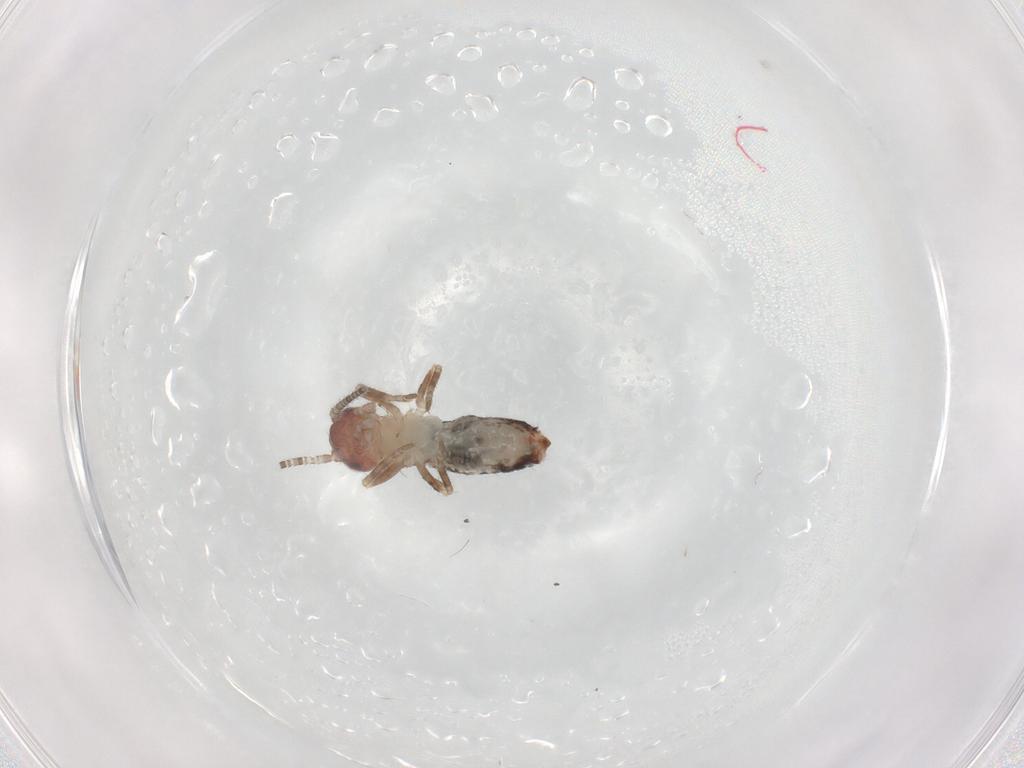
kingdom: Animalia
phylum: Arthropoda
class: Insecta
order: Orthoptera
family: Mogoplistidae
